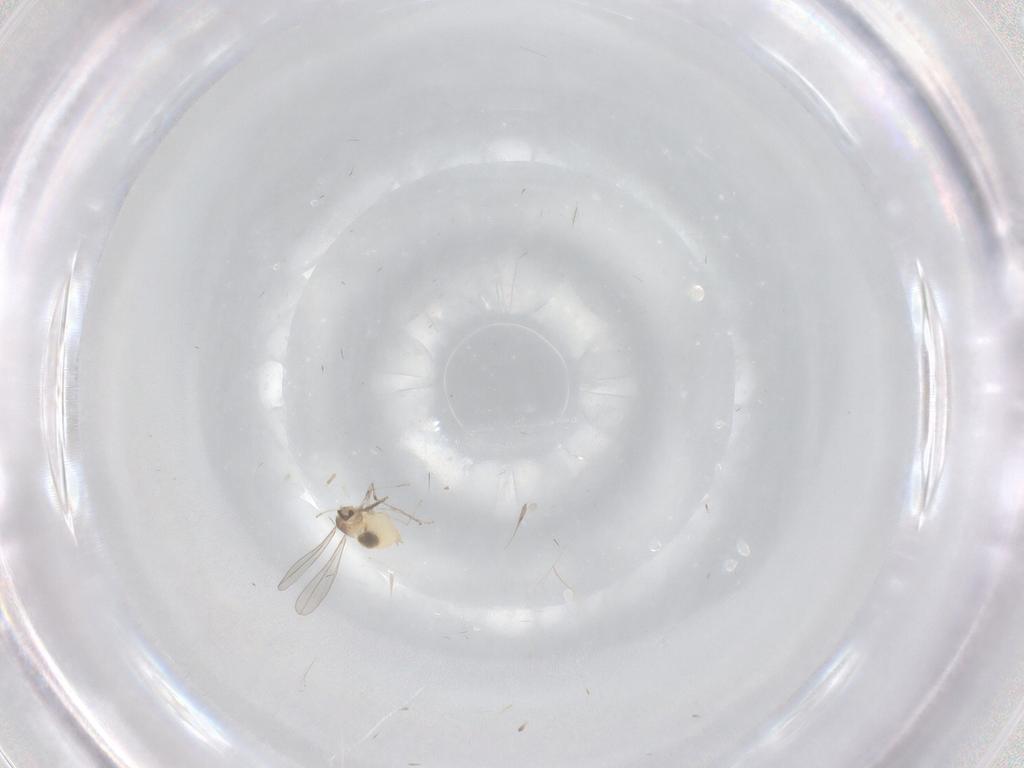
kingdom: Animalia
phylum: Arthropoda
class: Insecta
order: Diptera
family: Cecidomyiidae
